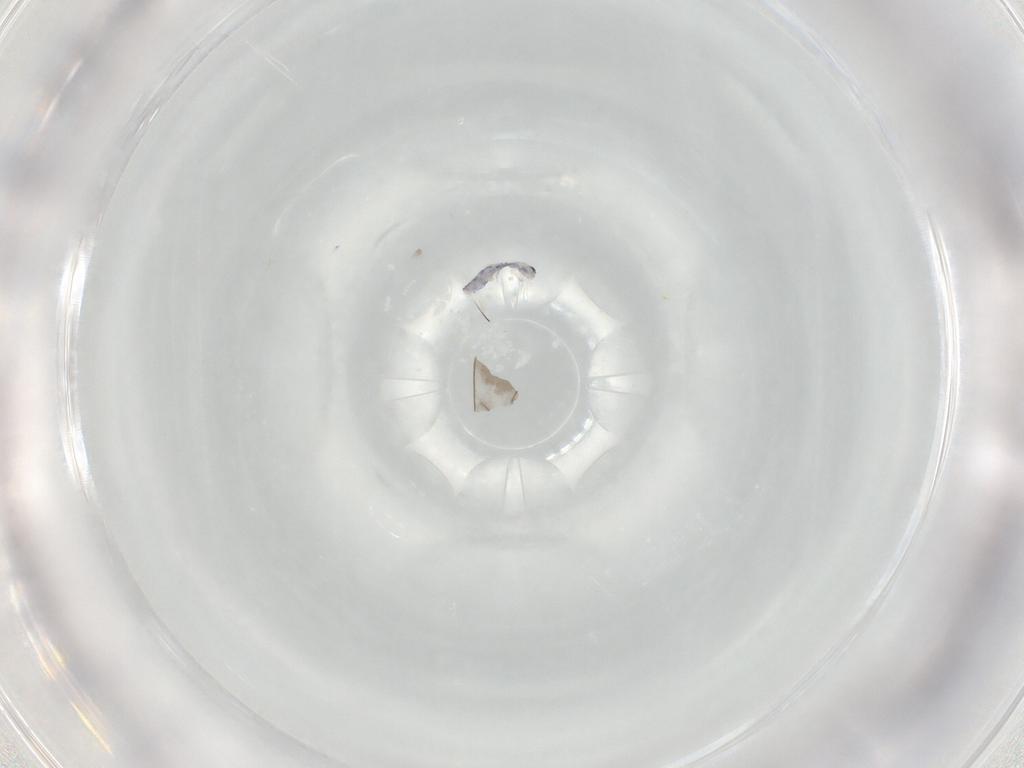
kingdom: Animalia
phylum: Arthropoda
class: Collembola
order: Entomobryomorpha
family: Entomobryidae
